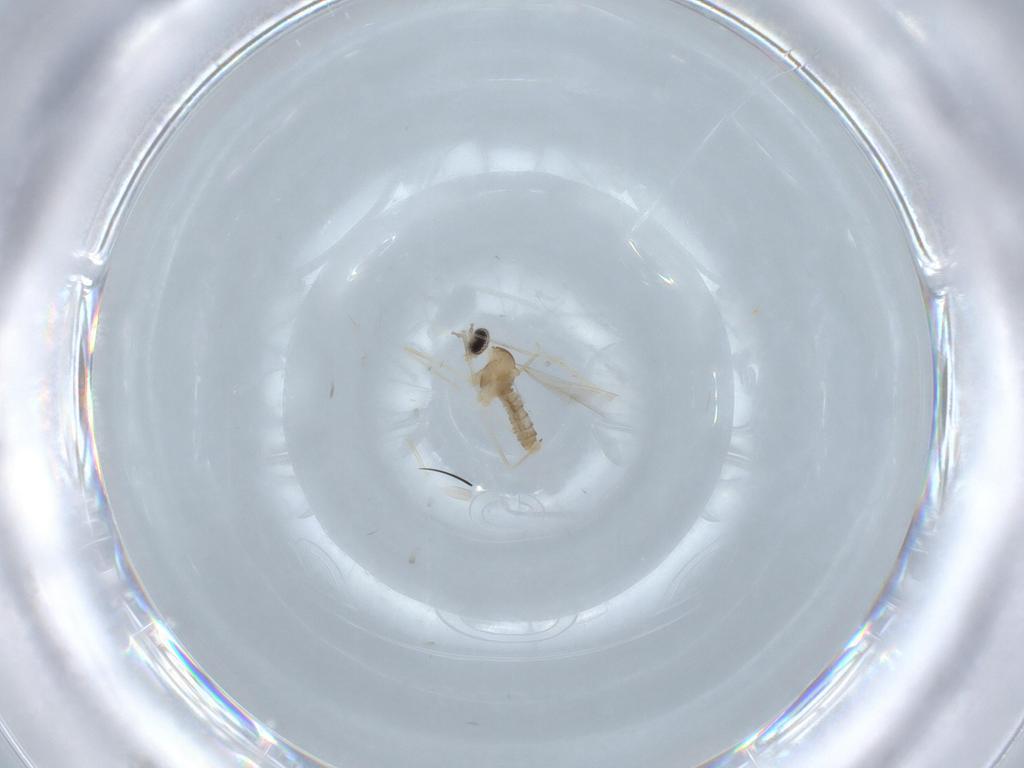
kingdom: Animalia
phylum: Arthropoda
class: Insecta
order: Diptera
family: Cecidomyiidae
